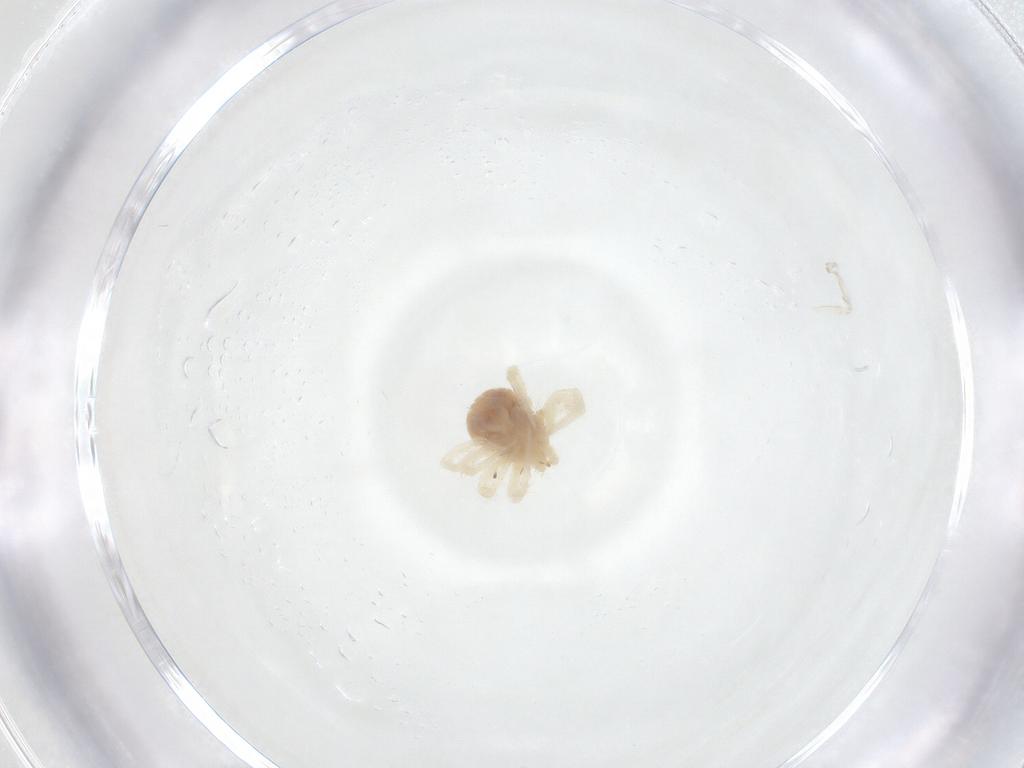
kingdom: Animalia
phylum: Arthropoda
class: Arachnida
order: Trombidiformes
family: Anystidae
